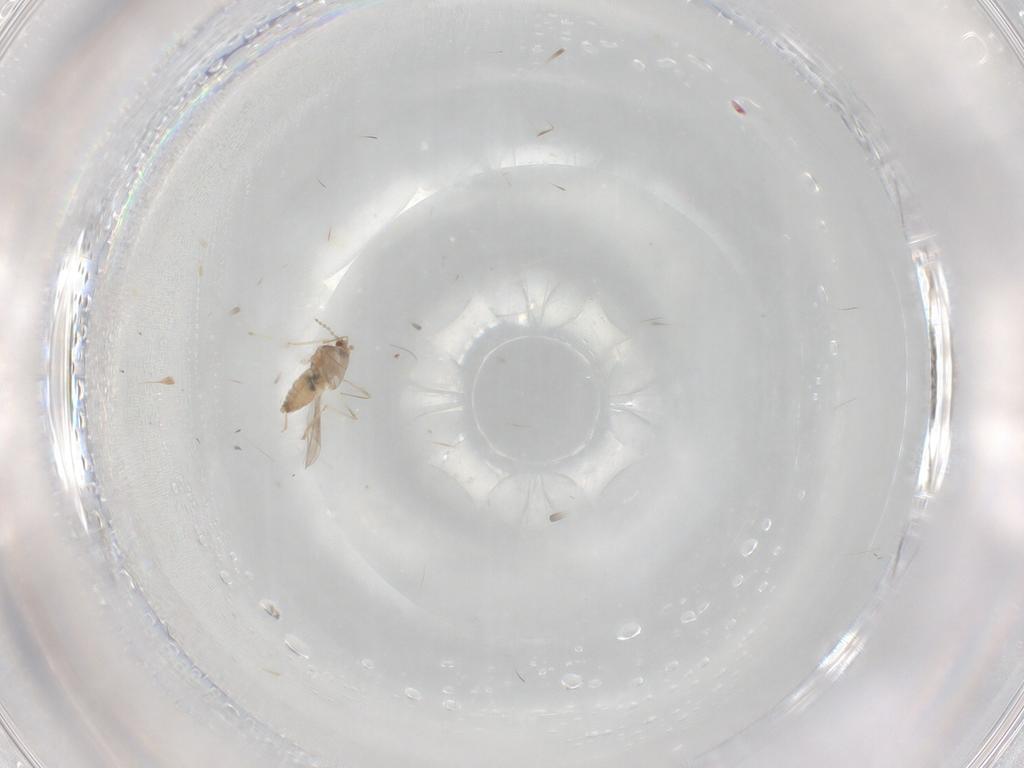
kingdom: Animalia
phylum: Arthropoda
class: Insecta
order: Diptera
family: Cecidomyiidae
